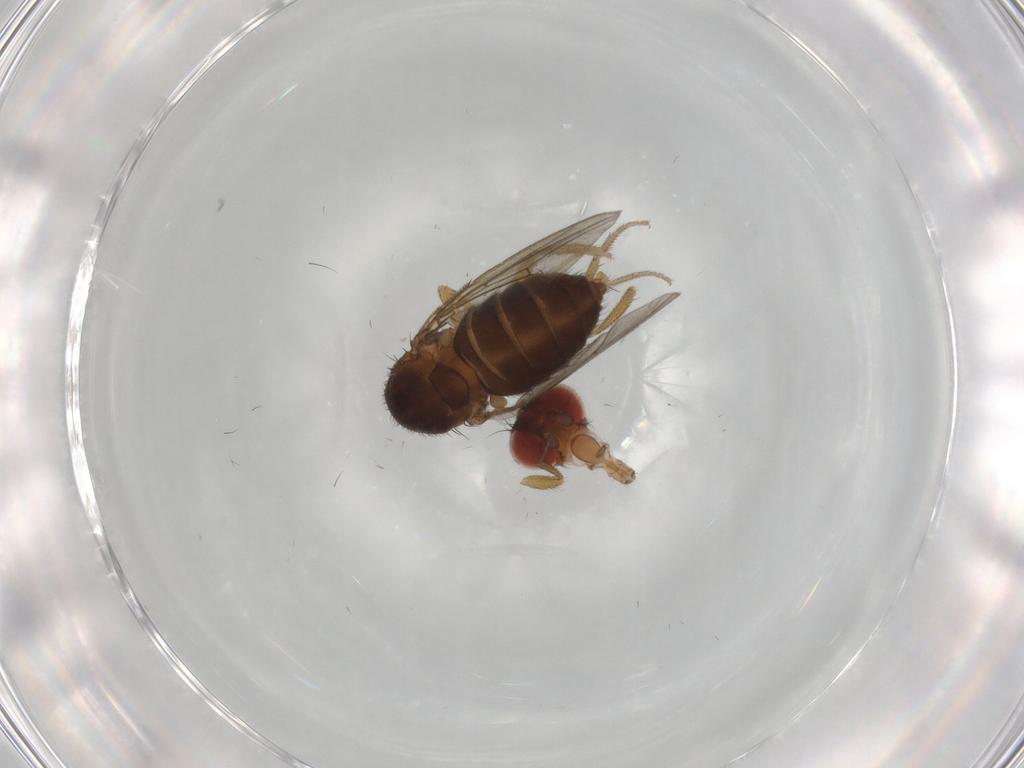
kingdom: Animalia
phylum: Arthropoda
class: Insecta
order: Diptera
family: Drosophilidae
